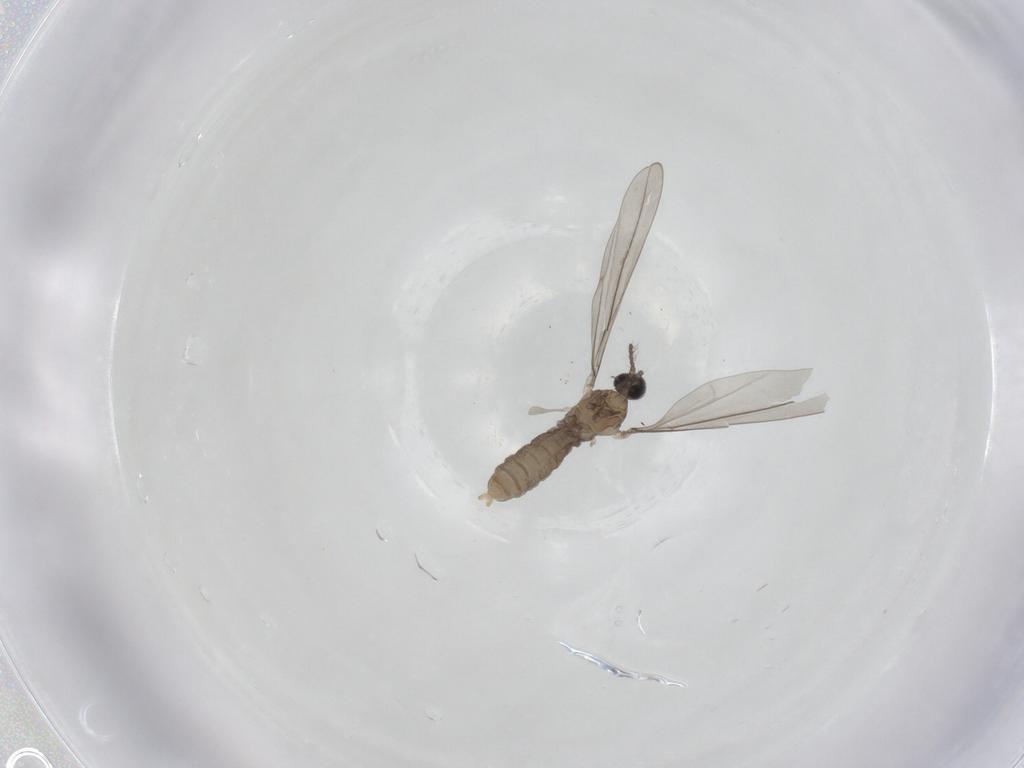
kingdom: Animalia
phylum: Arthropoda
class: Insecta
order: Diptera
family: Cecidomyiidae
